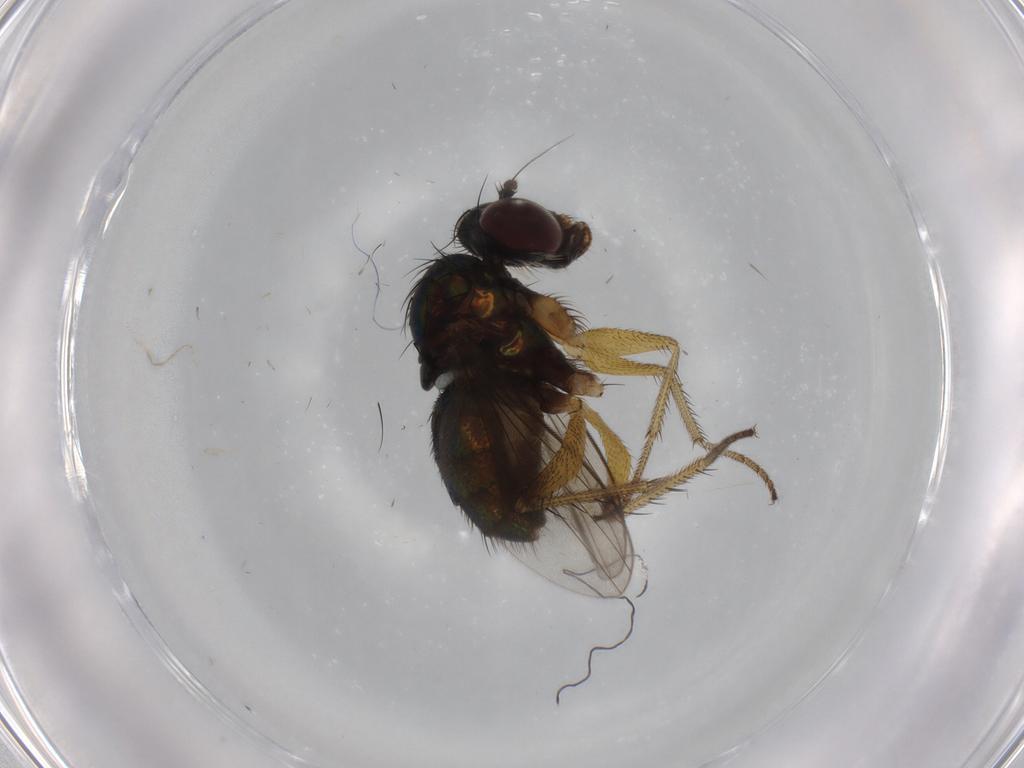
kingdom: Animalia
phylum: Arthropoda
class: Insecta
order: Diptera
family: Dolichopodidae
